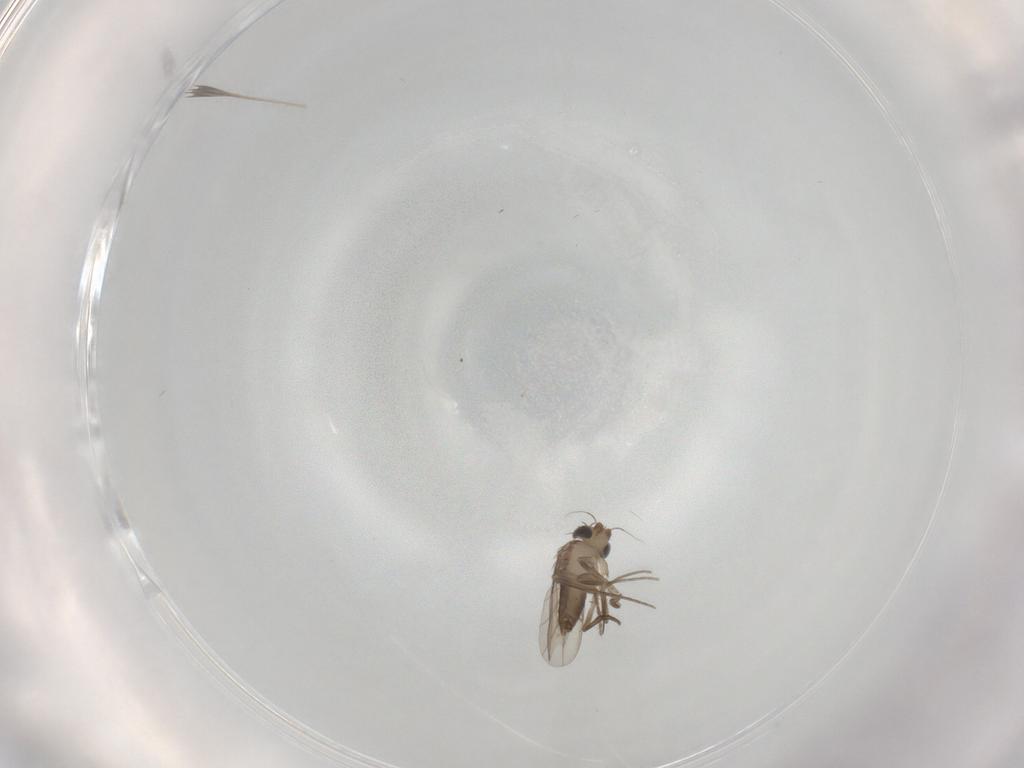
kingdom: Animalia
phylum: Arthropoda
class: Insecta
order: Diptera
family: Phoridae
